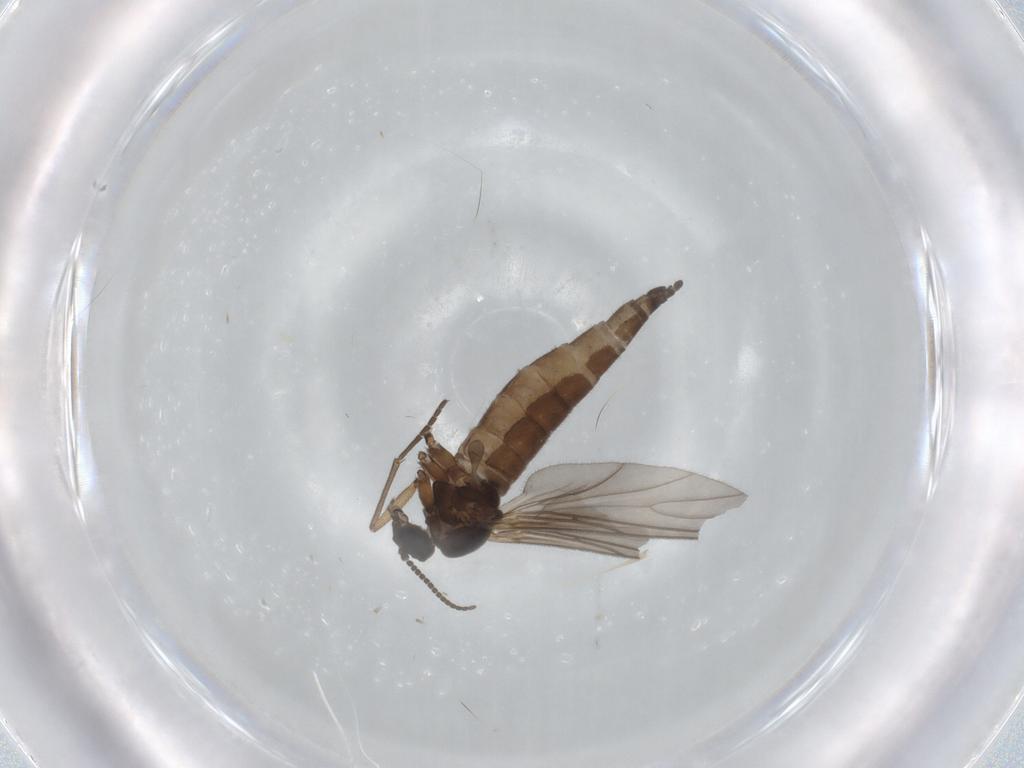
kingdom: Animalia
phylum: Arthropoda
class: Insecta
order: Diptera
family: Sciaridae
